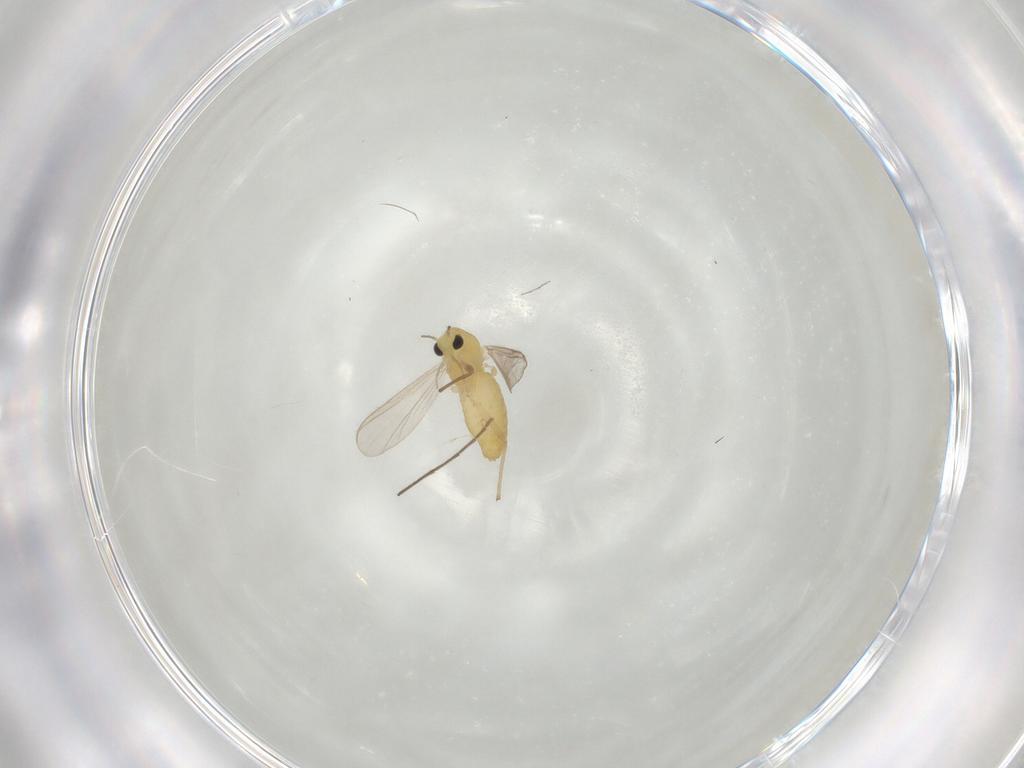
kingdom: Animalia
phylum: Arthropoda
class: Insecta
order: Diptera
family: Chironomidae
